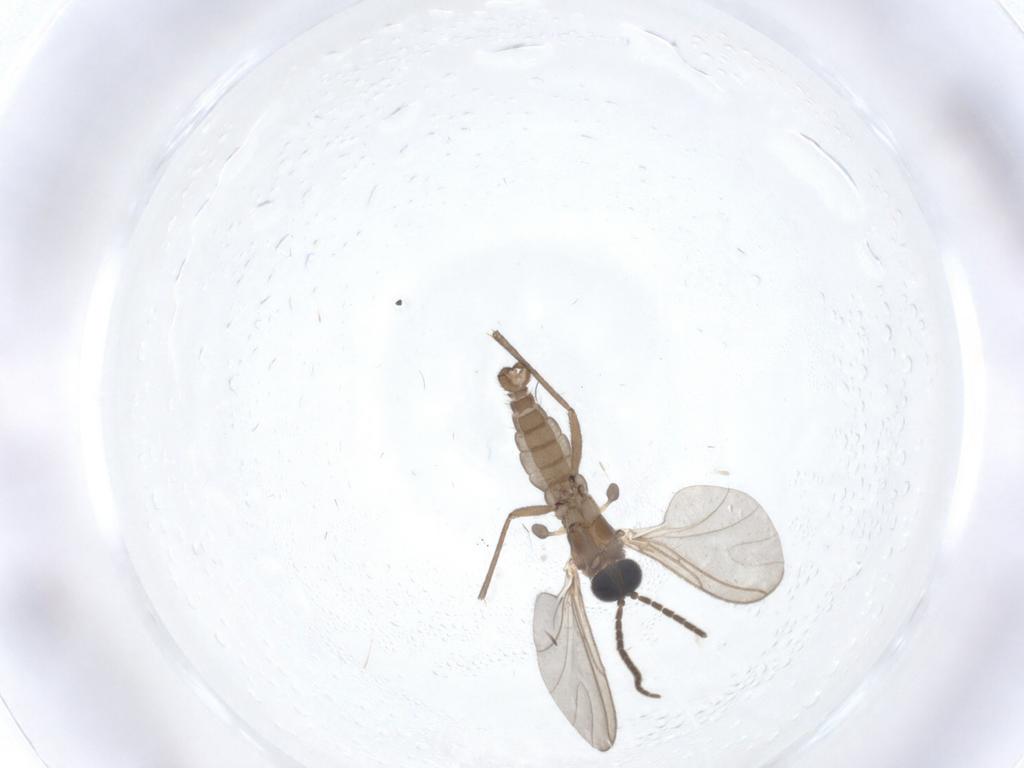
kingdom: Animalia
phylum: Arthropoda
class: Insecta
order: Diptera
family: Sciaridae
